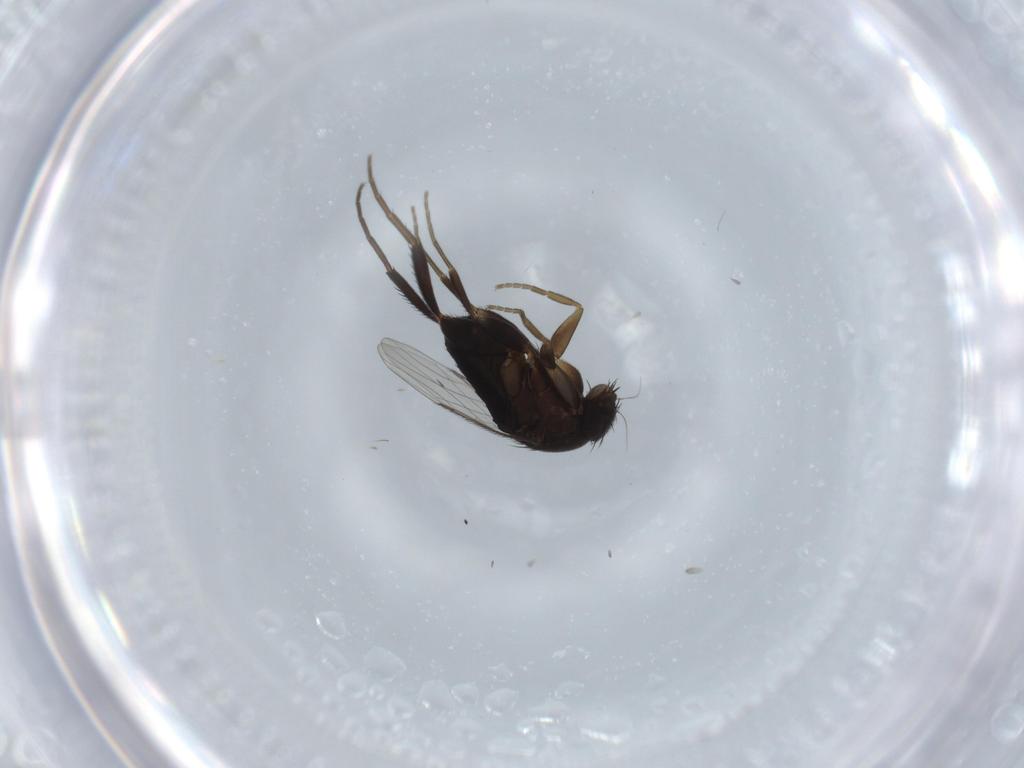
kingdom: Animalia
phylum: Arthropoda
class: Insecta
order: Diptera
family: Phoridae
